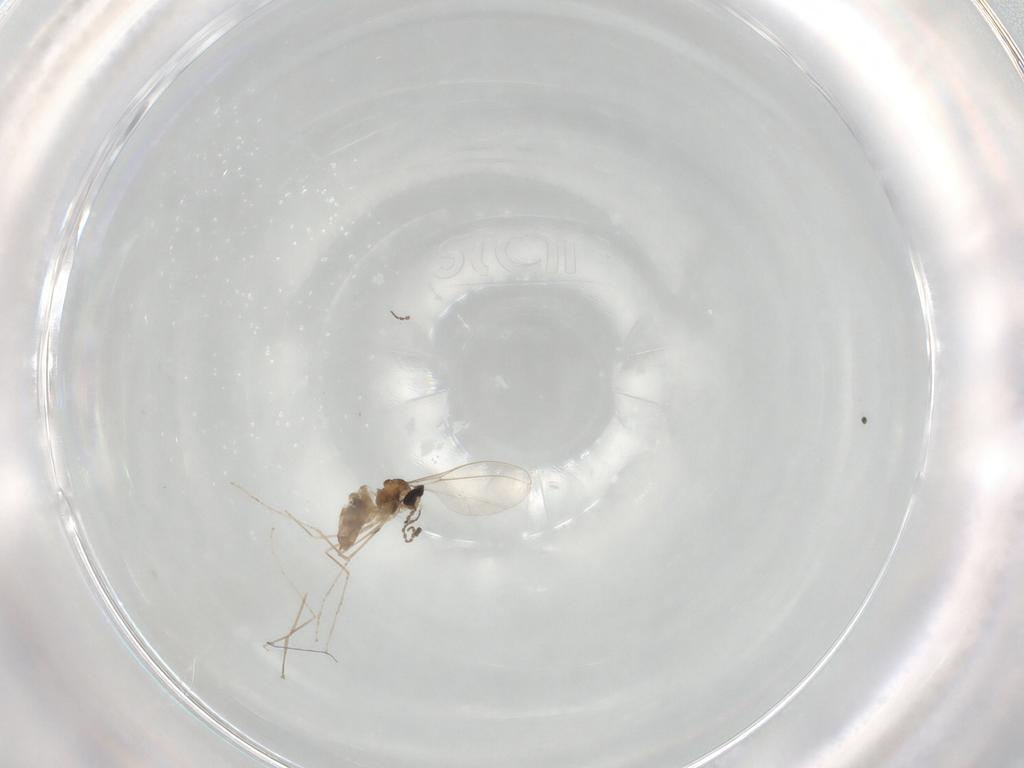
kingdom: Animalia
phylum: Arthropoda
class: Insecta
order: Diptera
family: Cecidomyiidae
